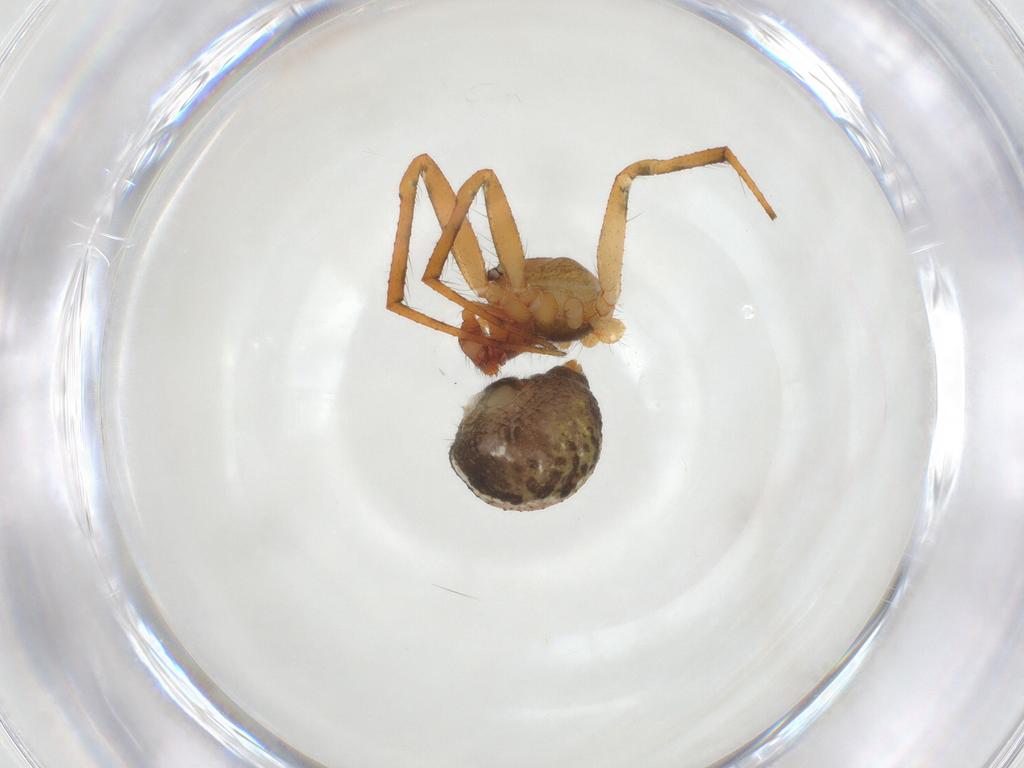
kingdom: Animalia
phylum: Arthropoda
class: Arachnida
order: Araneae
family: Theridiidae
